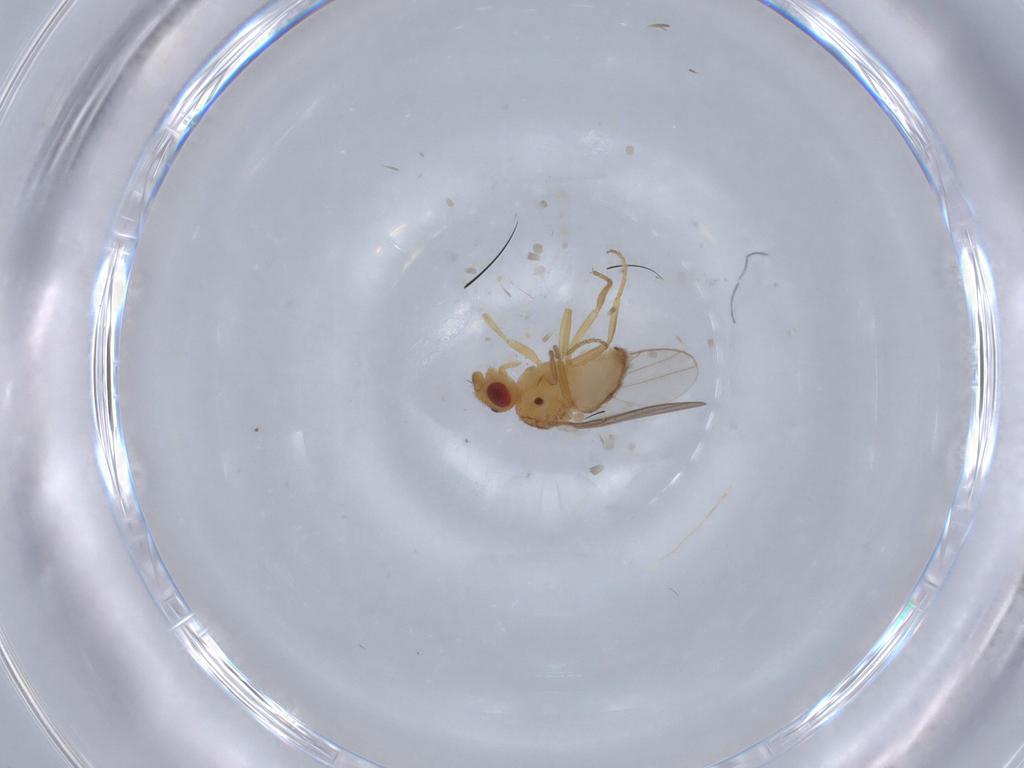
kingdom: Animalia
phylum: Arthropoda
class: Insecta
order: Diptera
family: Chloropidae
